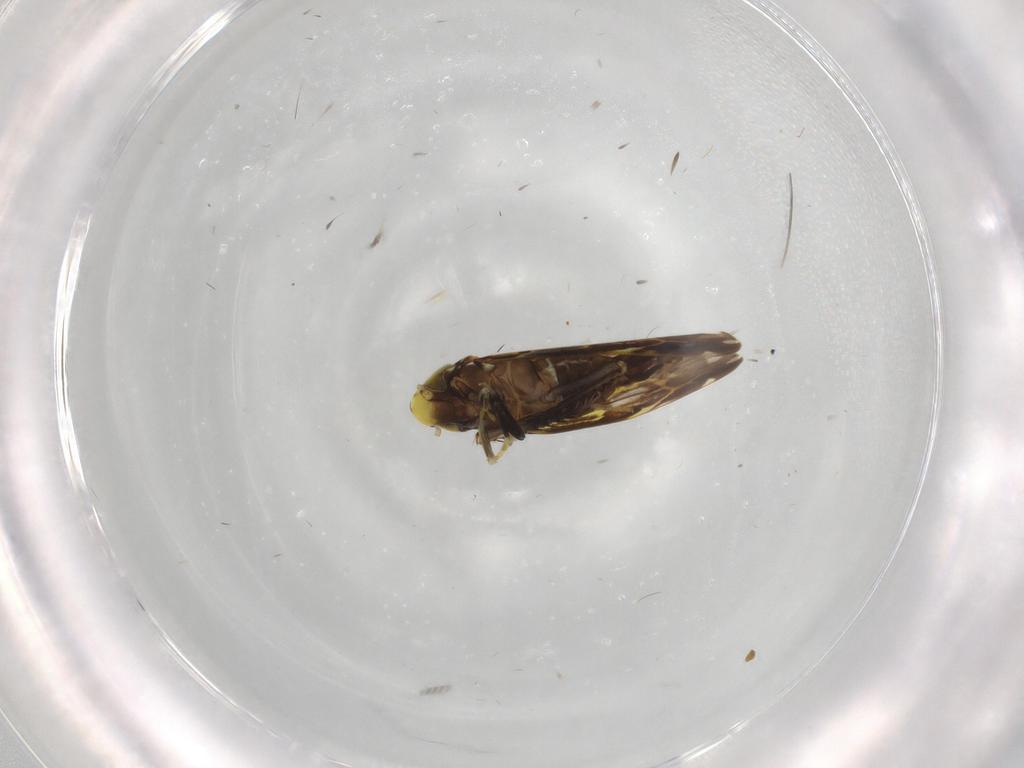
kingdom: Animalia
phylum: Arthropoda
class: Insecta
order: Hemiptera
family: Cicadellidae
